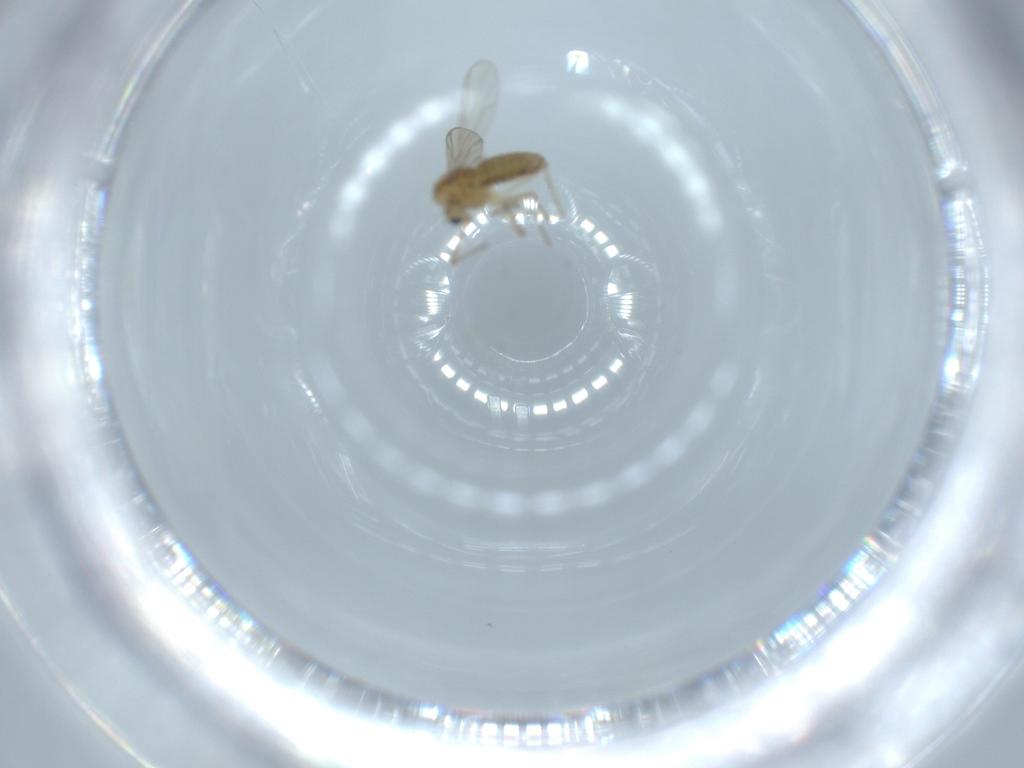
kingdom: Animalia
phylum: Arthropoda
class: Insecta
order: Diptera
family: Chironomidae
